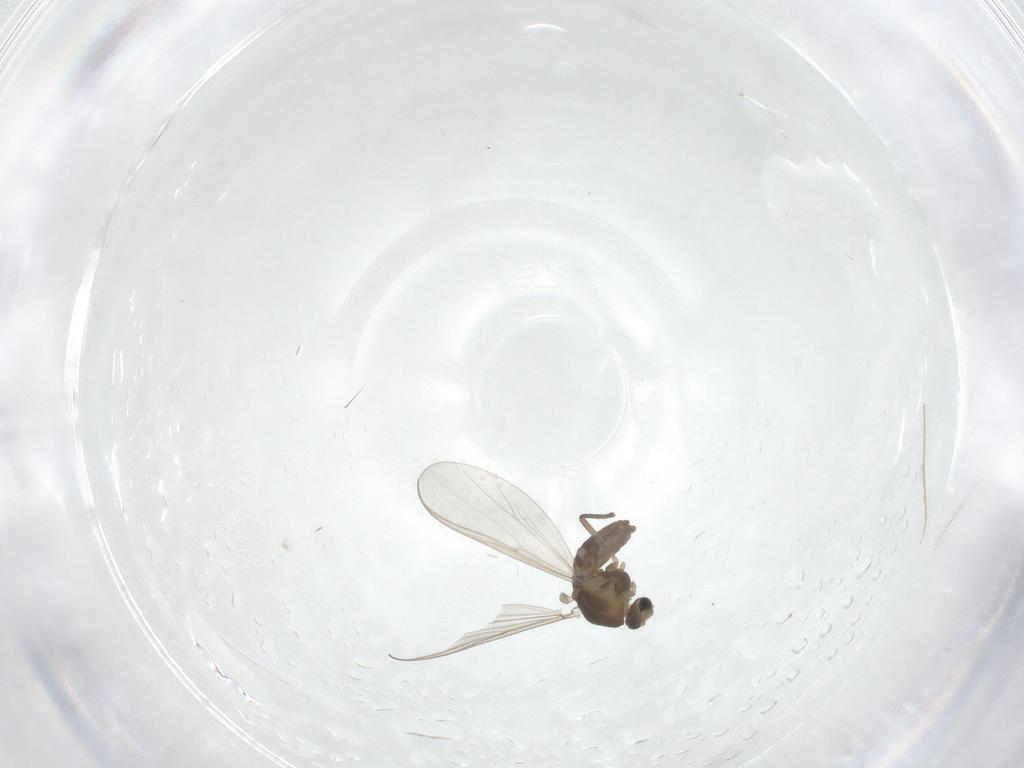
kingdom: Animalia
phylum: Arthropoda
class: Insecta
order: Diptera
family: Chironomidae
